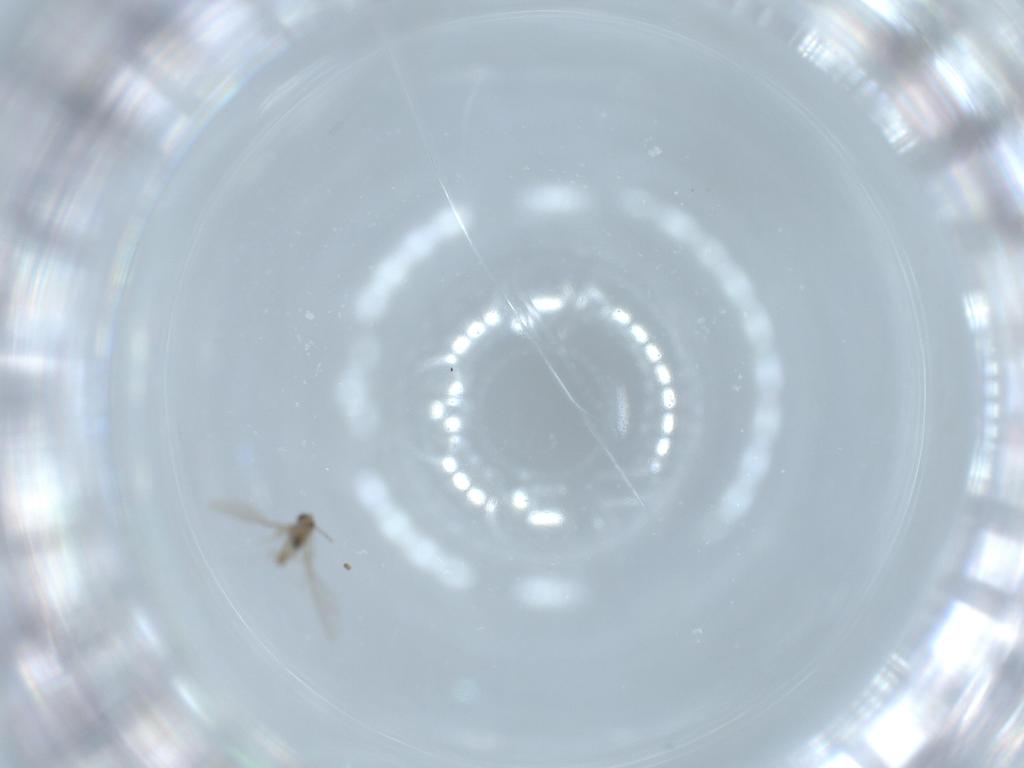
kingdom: Animalia
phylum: Arthropoda
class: Insecta
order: Diptera
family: Cecidomyiidae
